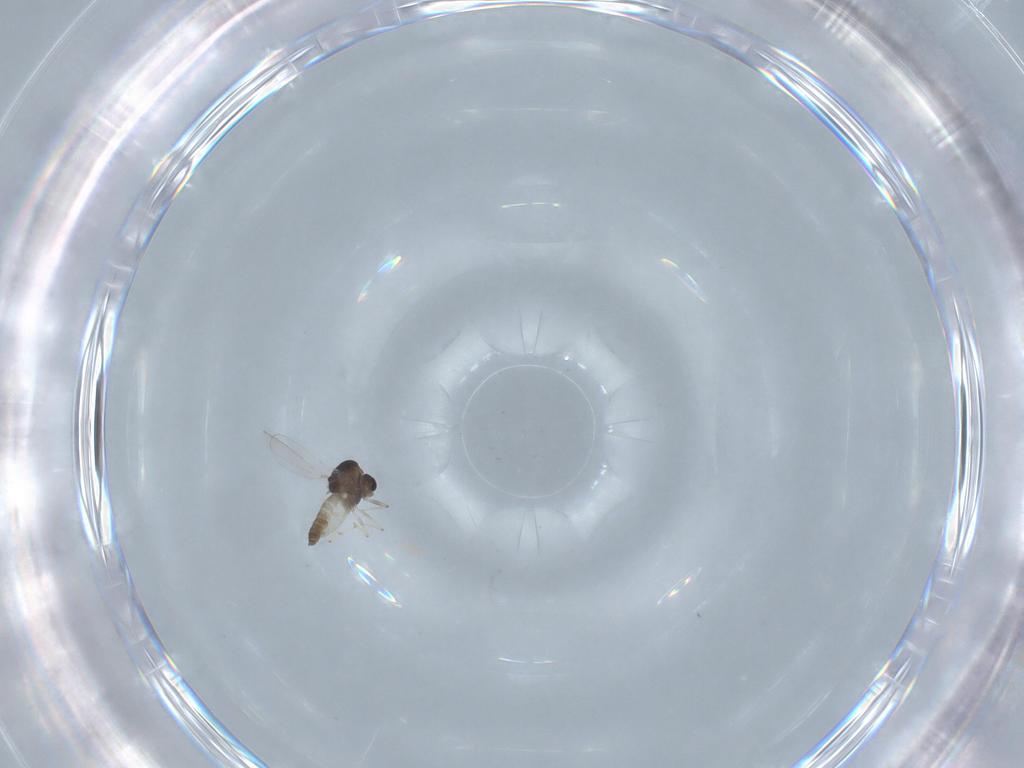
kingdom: Animalia
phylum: Arthropoda
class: Insecta
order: Diptera
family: Chironomidae
